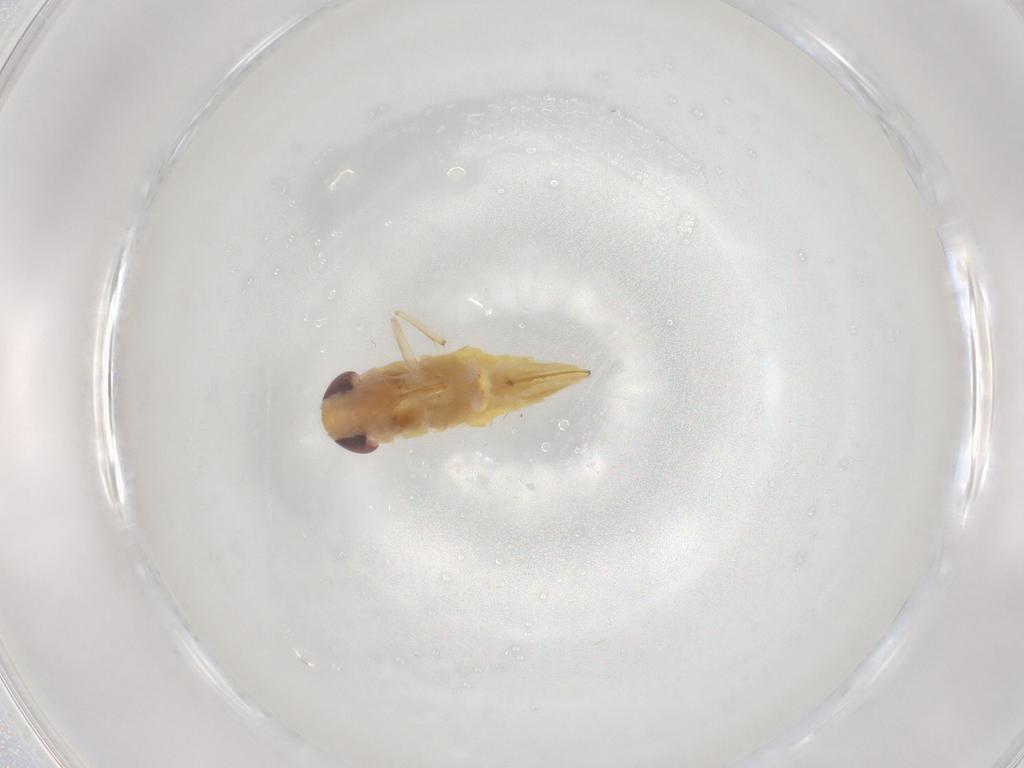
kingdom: Animalia
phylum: Arthropoda
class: Insecta
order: Hemiptera
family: Cicadellidae
